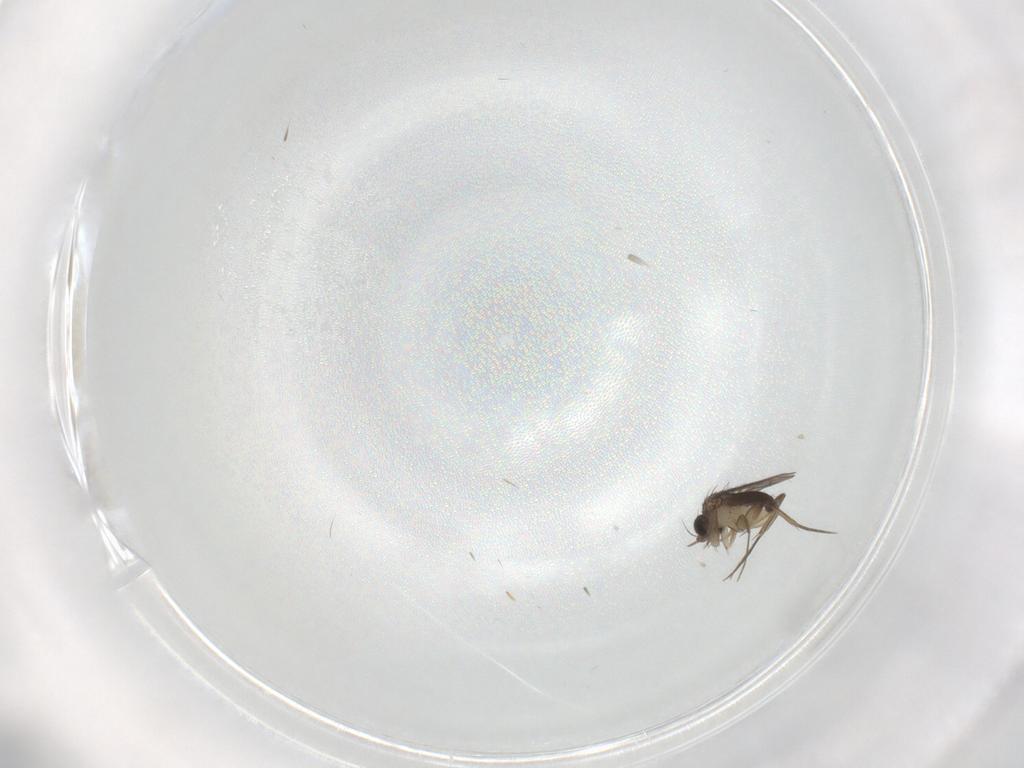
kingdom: Animalia
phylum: Arthropoda
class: Insecta
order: Diptera
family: Phoridae
